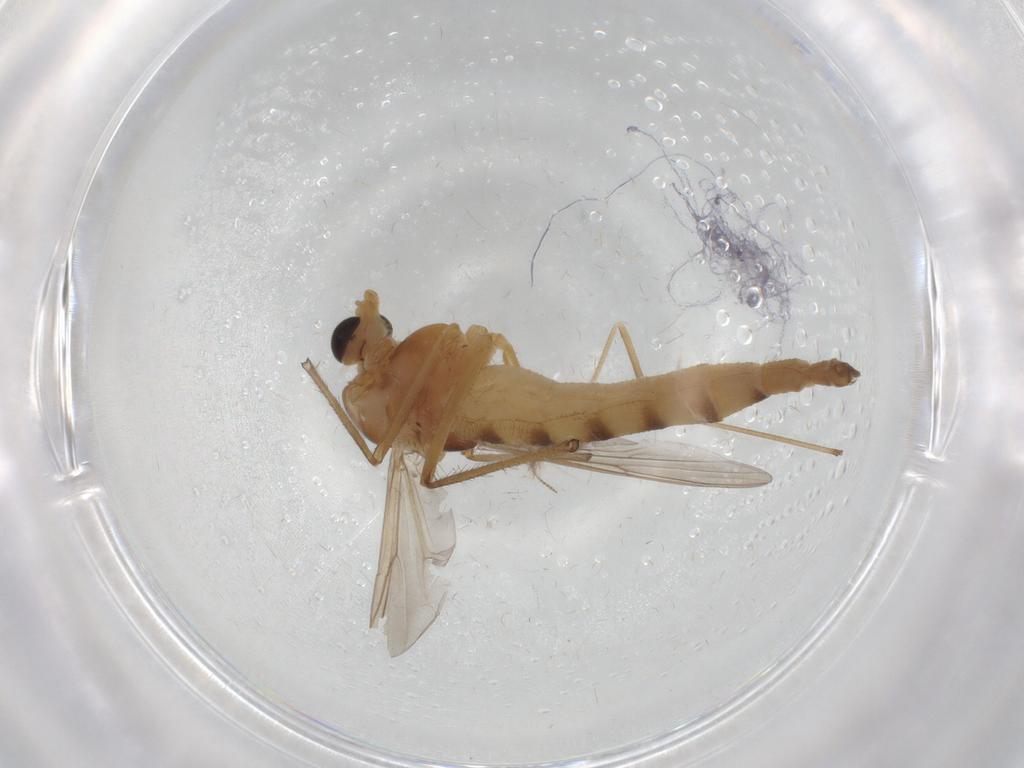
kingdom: Animalia
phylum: Arthropoda
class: Insecta
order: Diptera
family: Chironomidae
